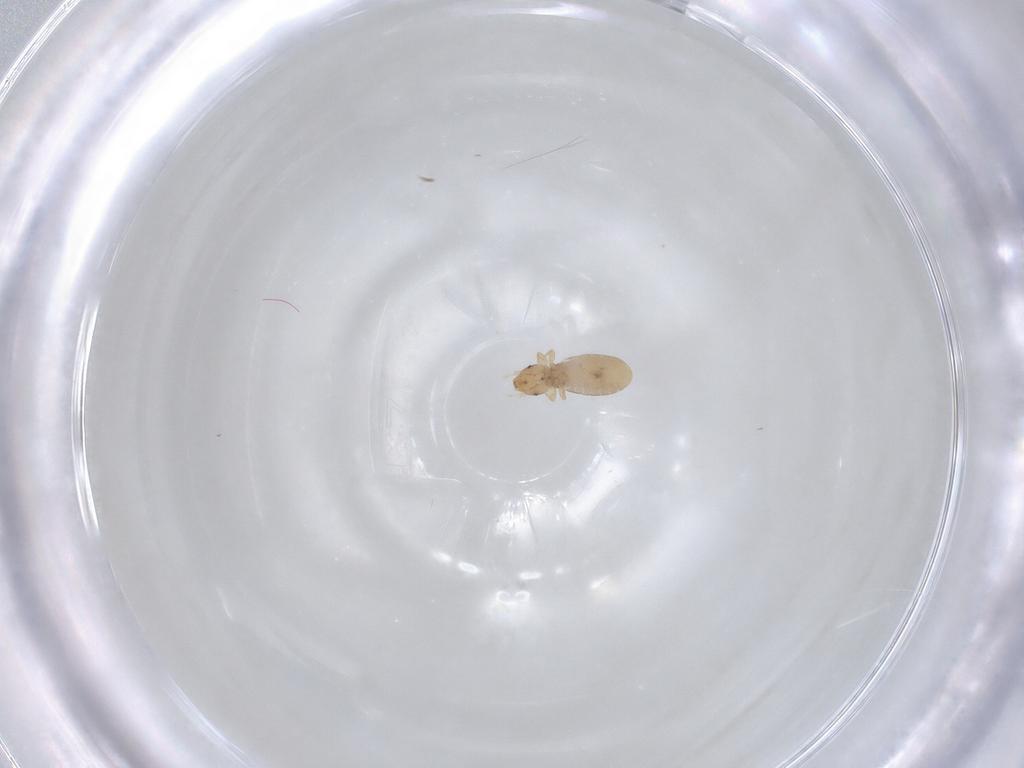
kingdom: Animalia
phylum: Arthropoda
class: Insecta
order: Psocodea
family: Liposcelididae
